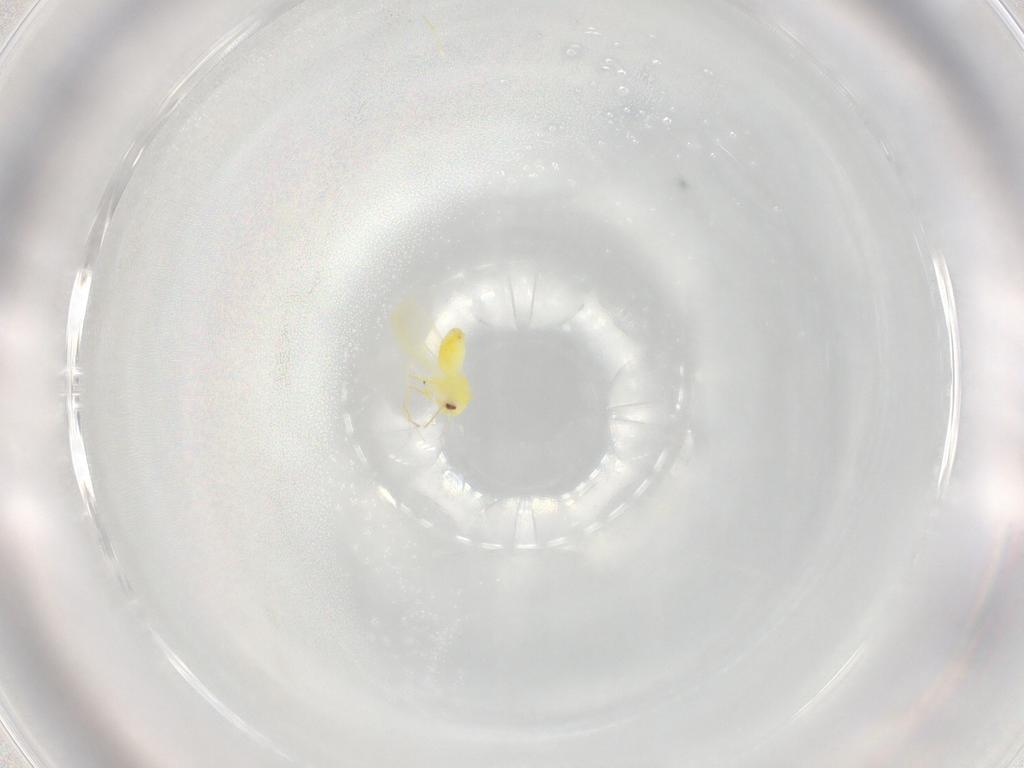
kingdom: Animalia
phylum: Arthropoda
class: Insecta
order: Hemiptera
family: Aleyrodidae
